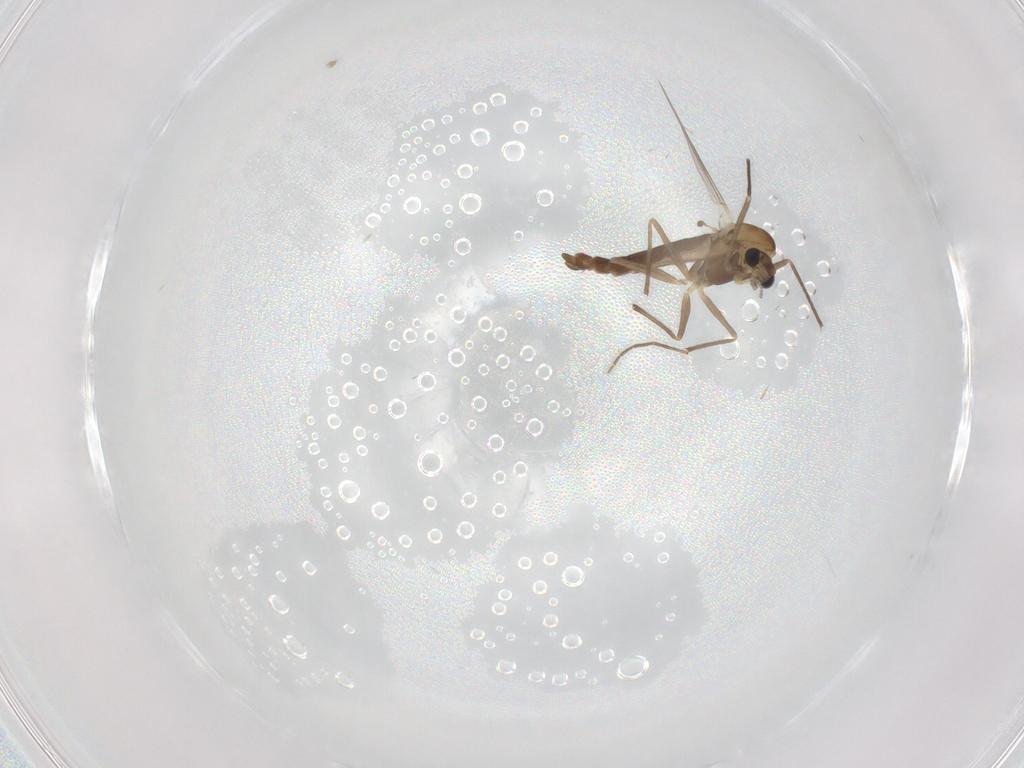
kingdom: Animalia
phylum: Arthropoda
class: Insecta
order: Diptera
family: Chironomidae
